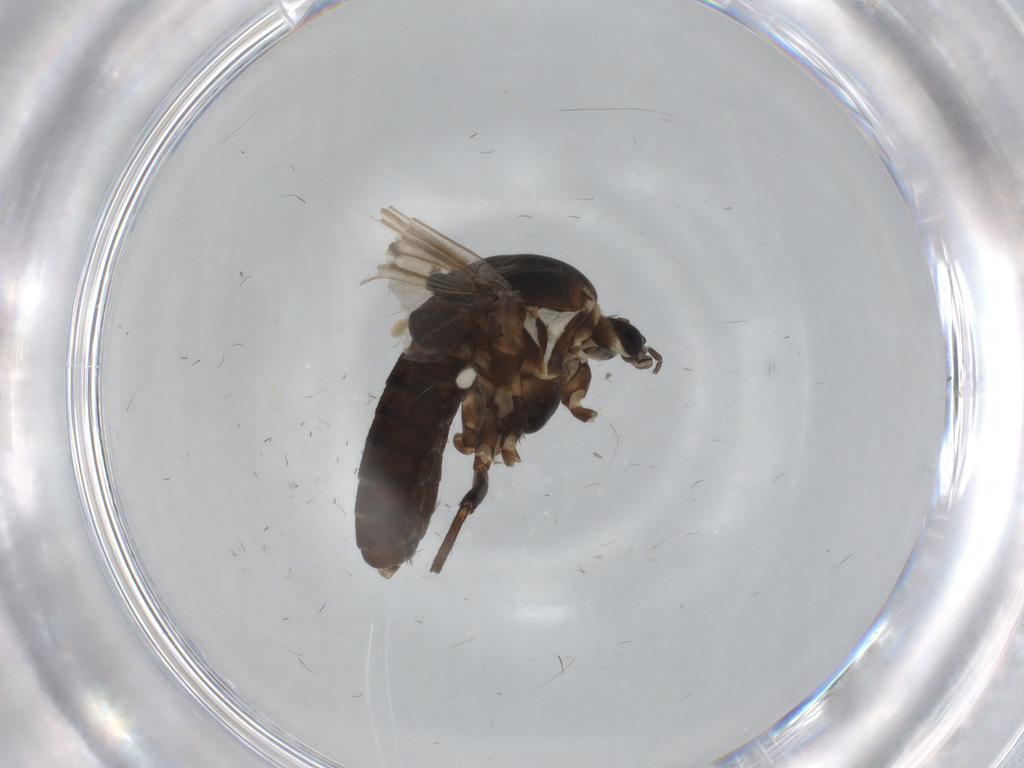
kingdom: Animalia
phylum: Arthropoda
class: Insecta
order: Diptera
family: Chironomidae
